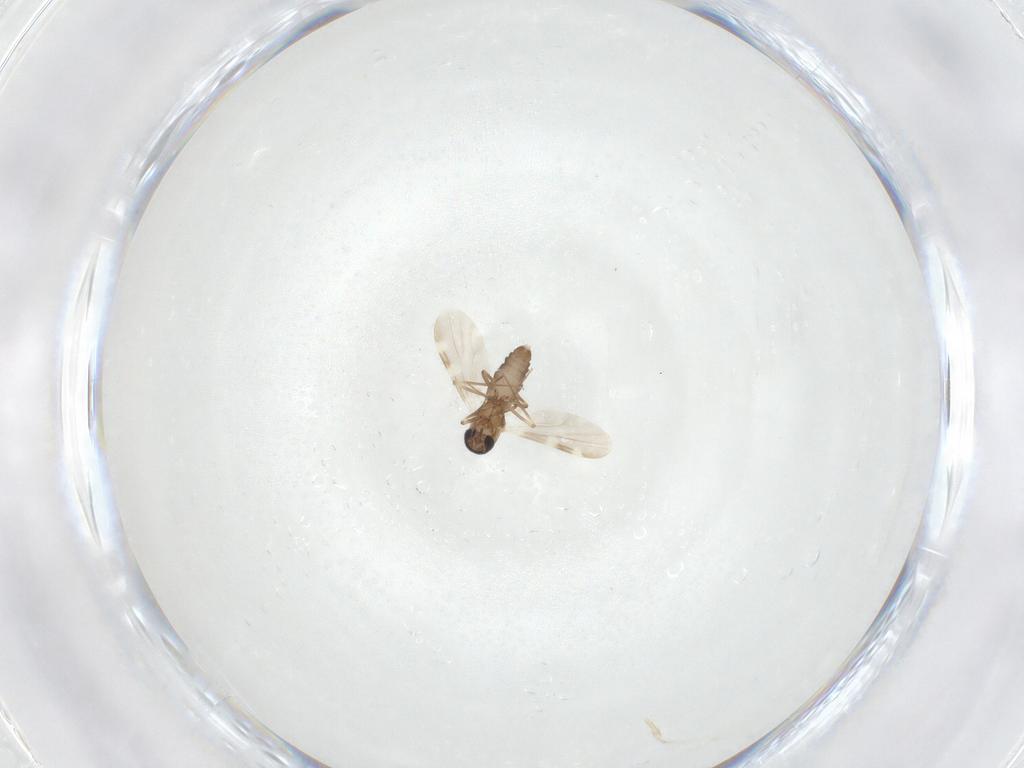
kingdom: Animalia
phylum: Arthropoda
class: Insecta
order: Diptera
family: Ceratopogonidae
